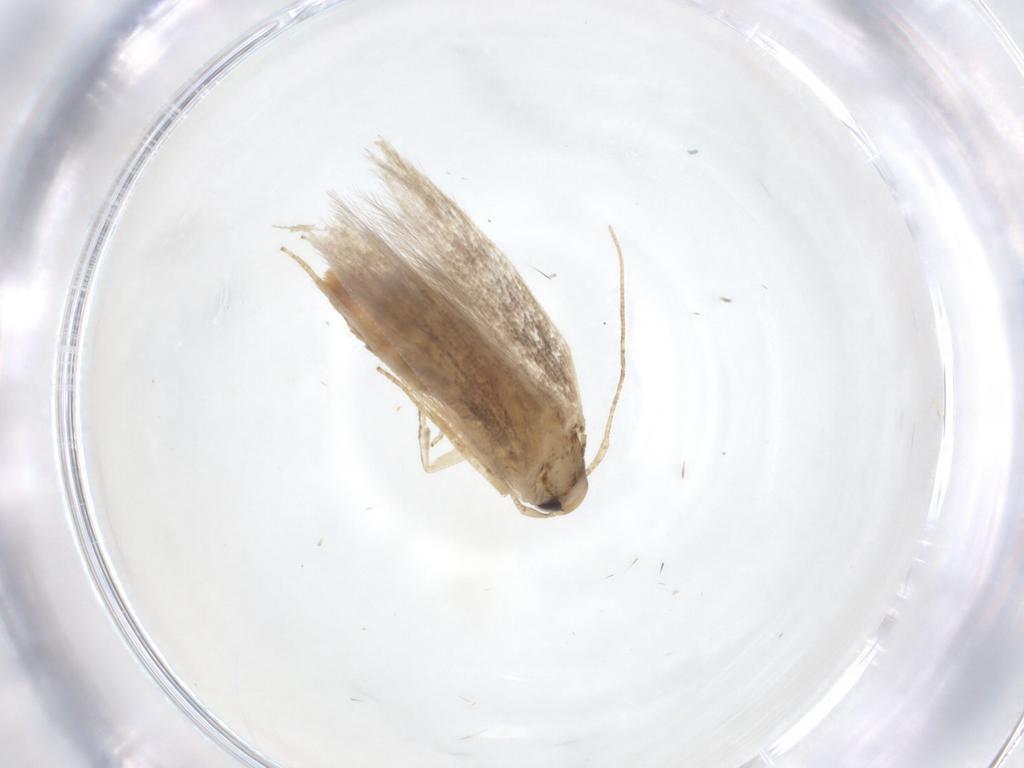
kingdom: Animalia
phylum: Arthropoda
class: Insecta
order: Lepidoptera
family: Cosmopterigidae
